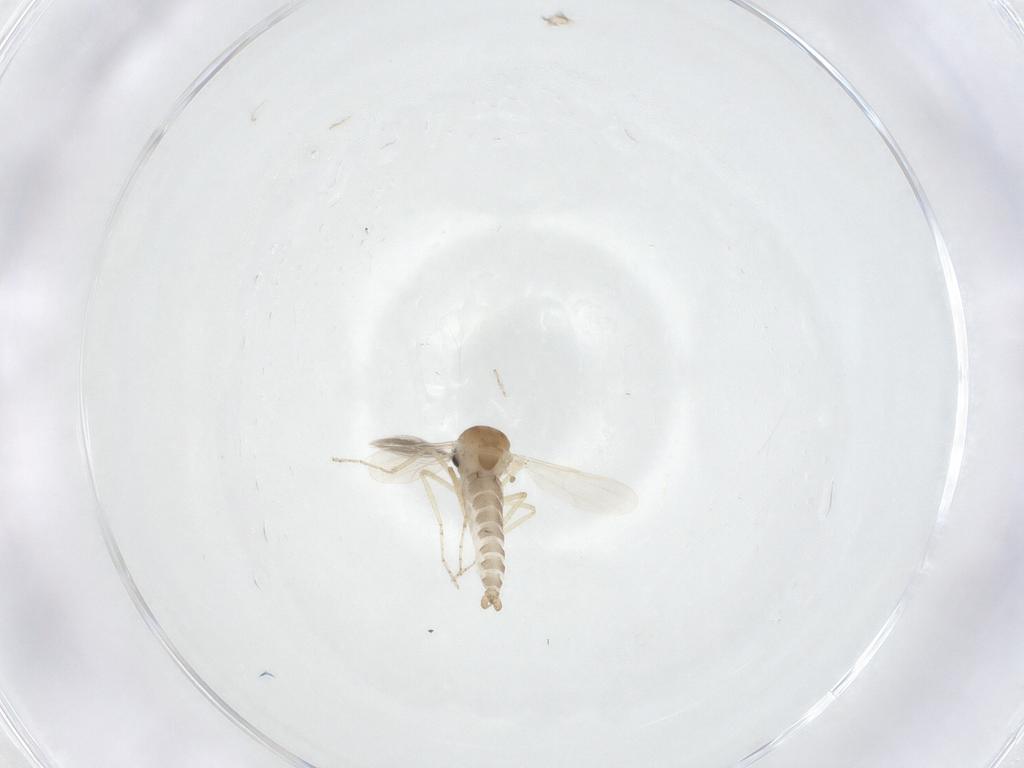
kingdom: Animalia
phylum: Arthropoda
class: Insecta
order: Diptera
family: Ceratopogonidae
